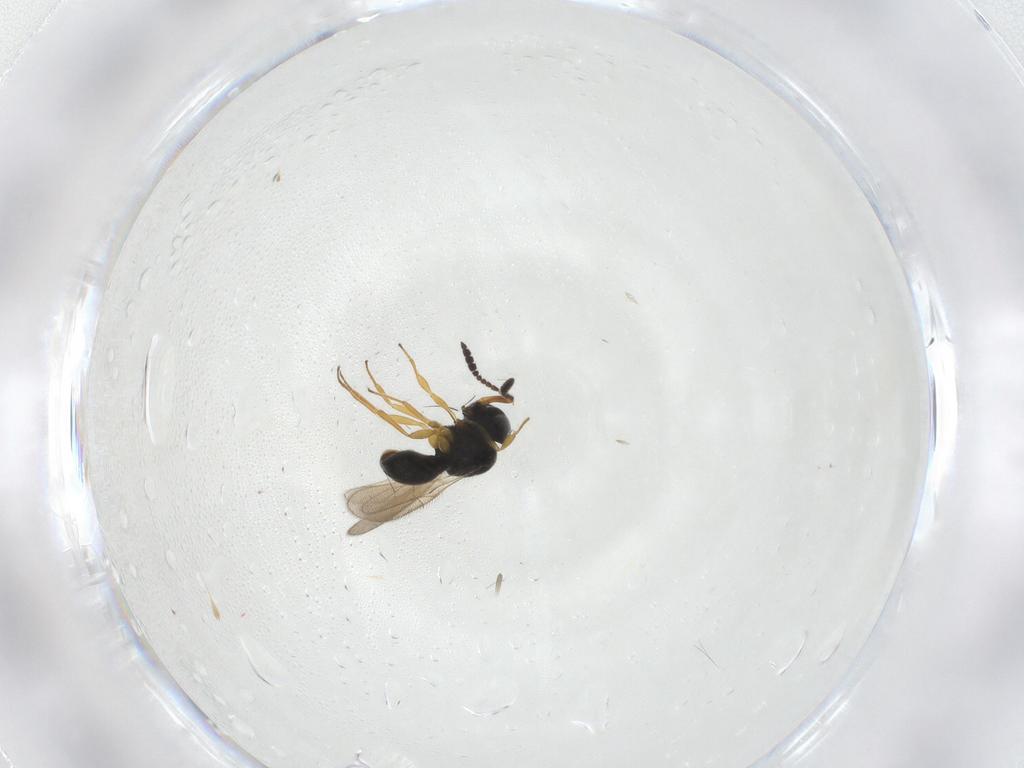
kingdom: Animalia
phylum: Arthropoda
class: Insecta
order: Hymenoptera
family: Scelionidae
